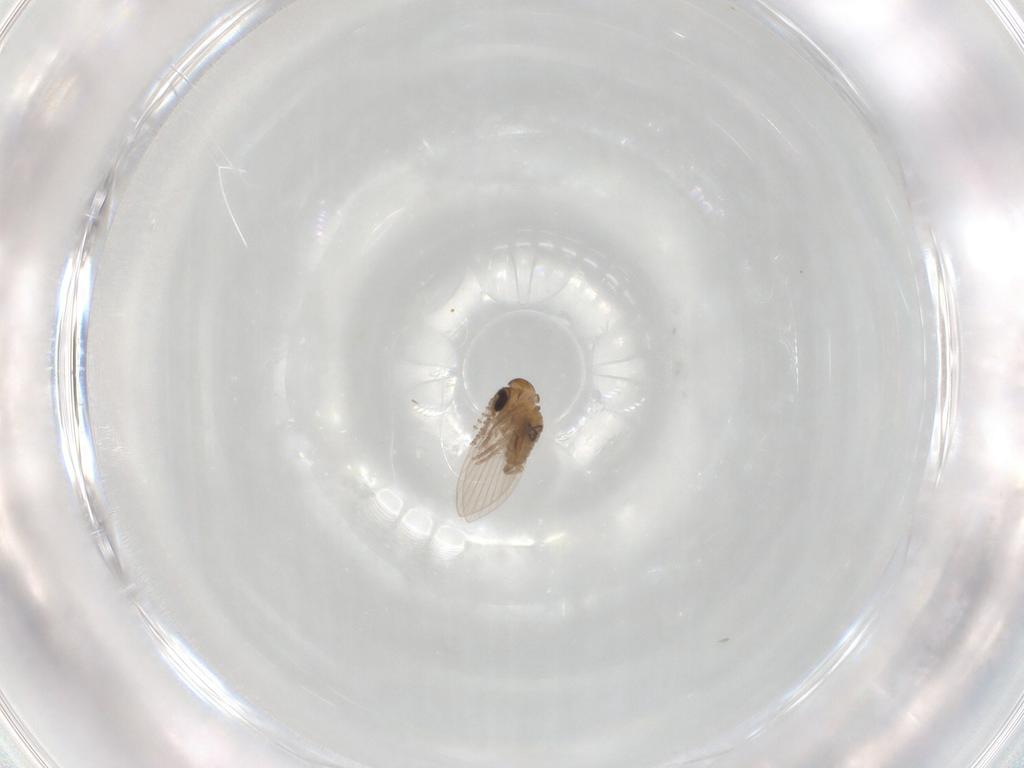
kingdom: Animalia
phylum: Arthropoda
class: Insecta
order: Diptera
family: Psychodidae
